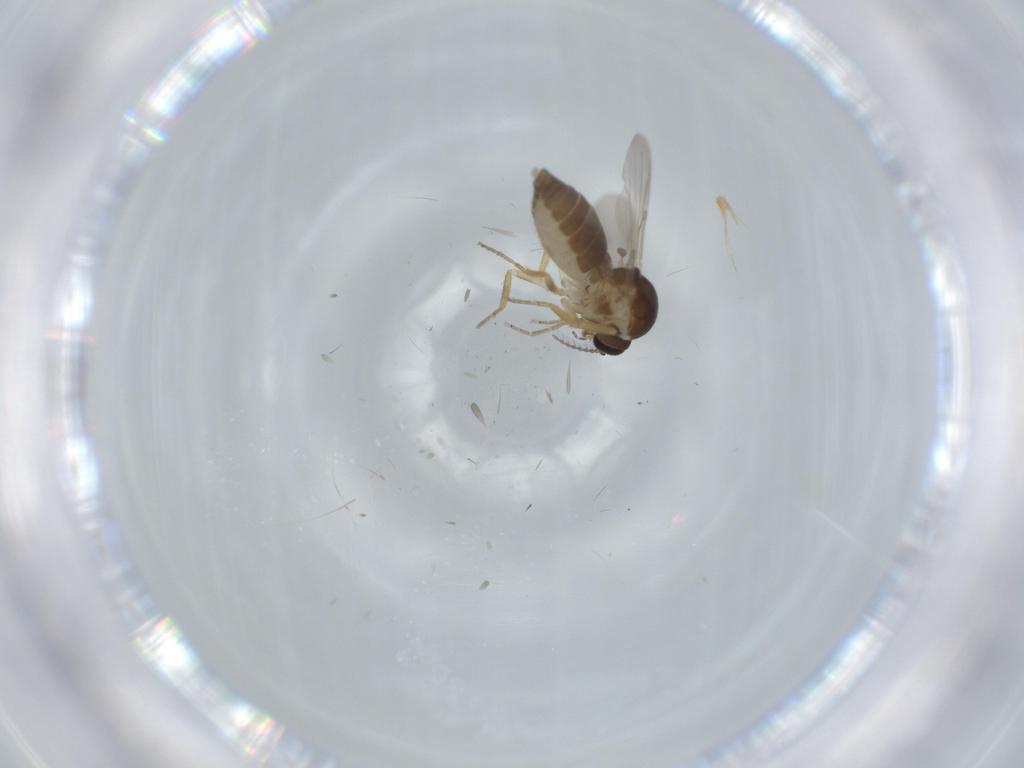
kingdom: Animalia
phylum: Arthropoda
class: Insecta
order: Diptera
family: Ceratopogonidae
